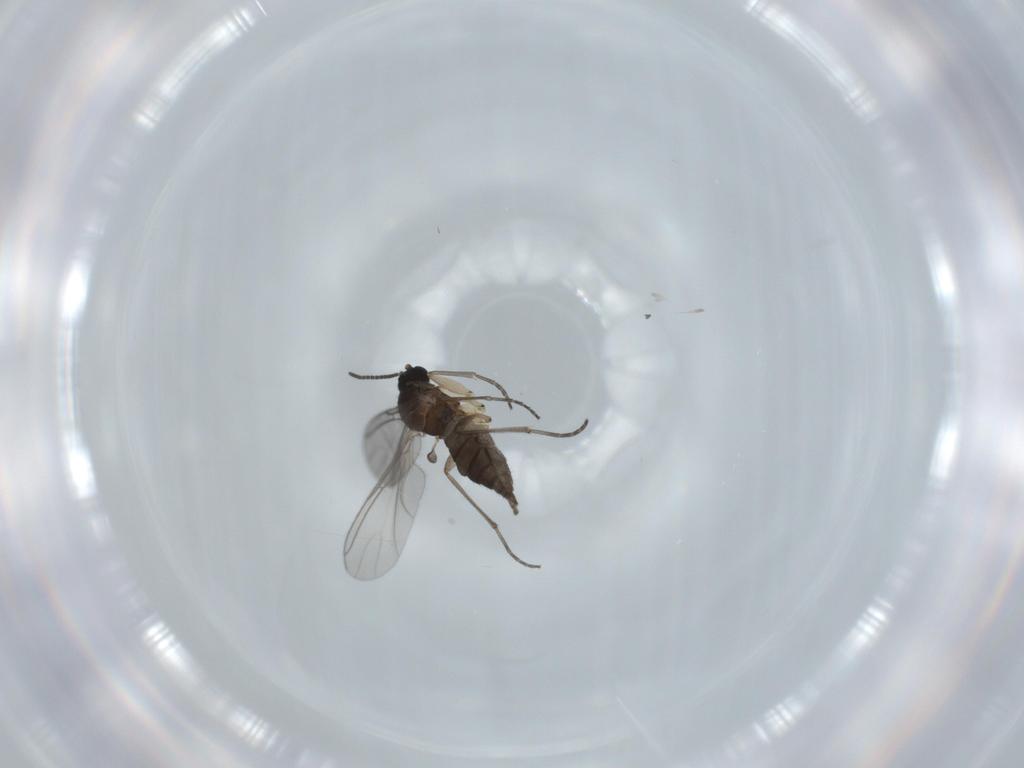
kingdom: Animalia
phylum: Arthropoda
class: Insecta
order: Diptera
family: Sciaridae
